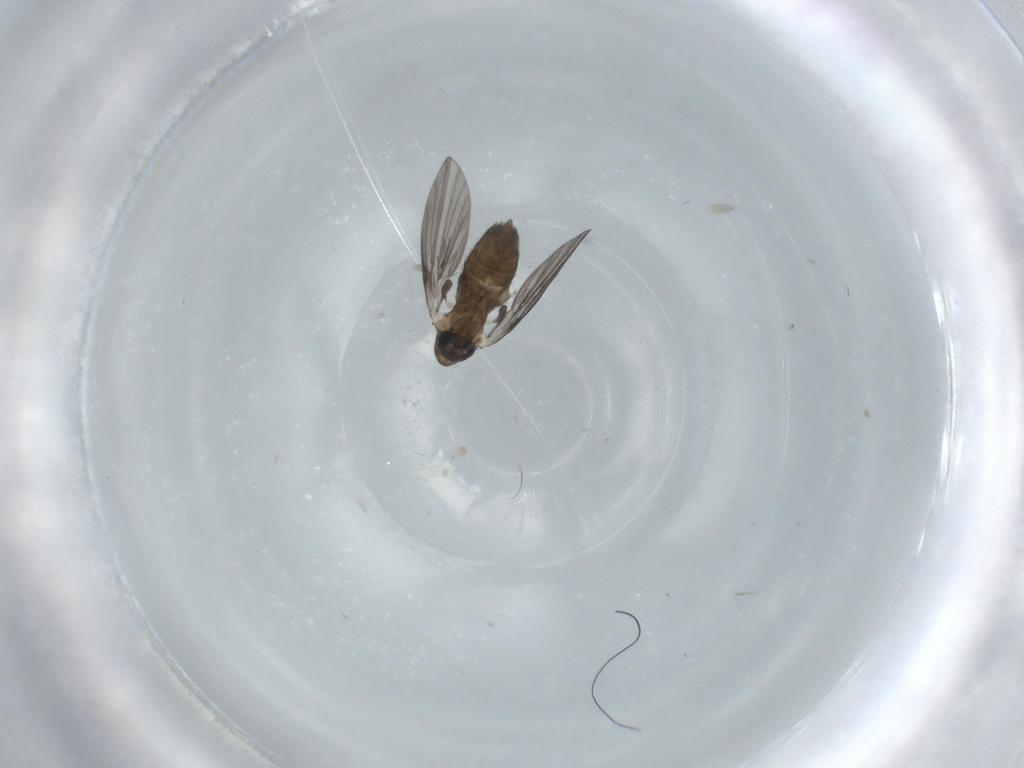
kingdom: Animalia
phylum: Arthropoda
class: Insecta
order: Diptera
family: Psychodidae
